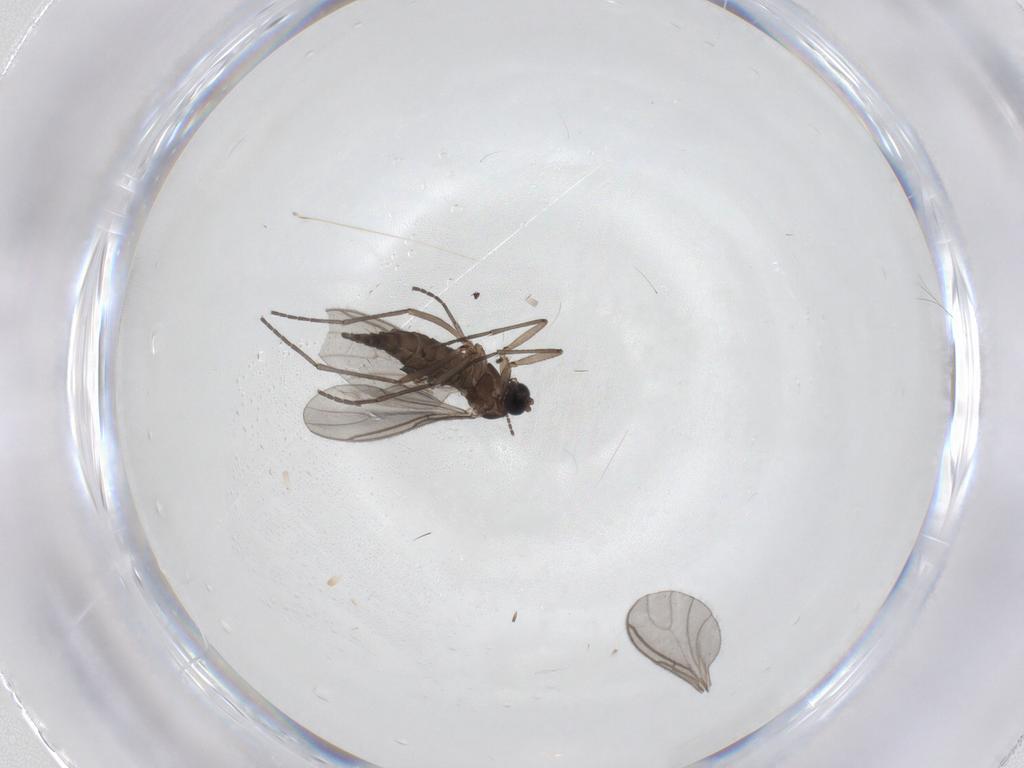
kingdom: Animalia
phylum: Arthropoda
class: Insecta
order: Diptera
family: Sciaridae
